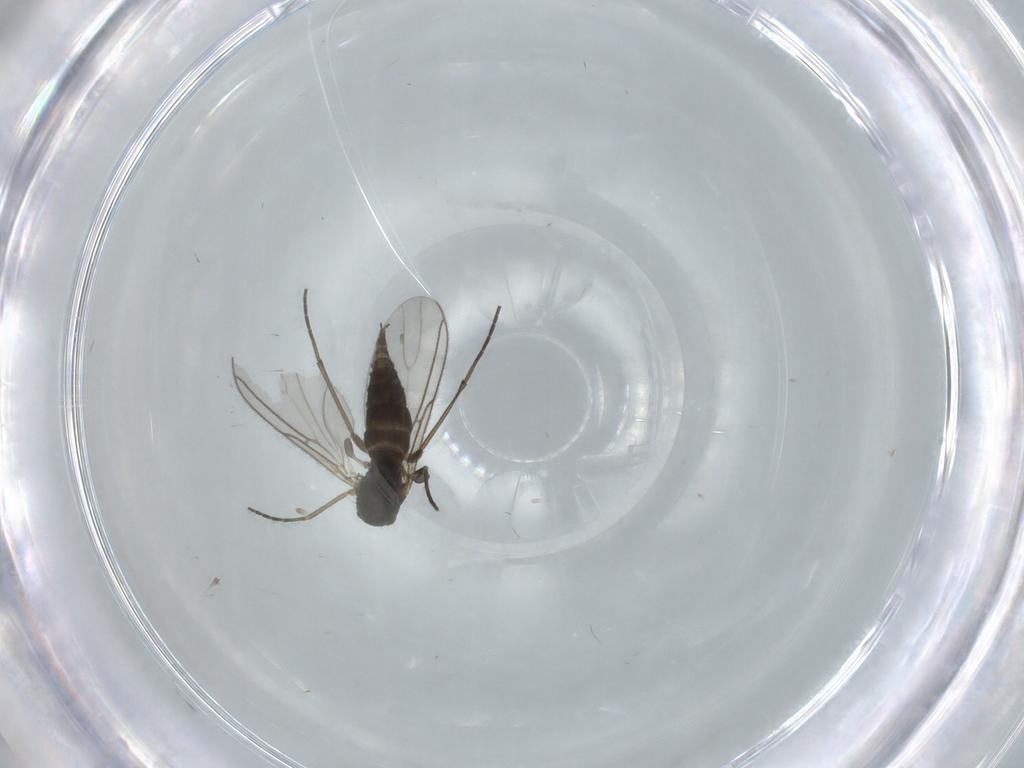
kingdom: Animalia
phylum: Arthropoda
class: Insecta
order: Diptera
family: Sciaridae
